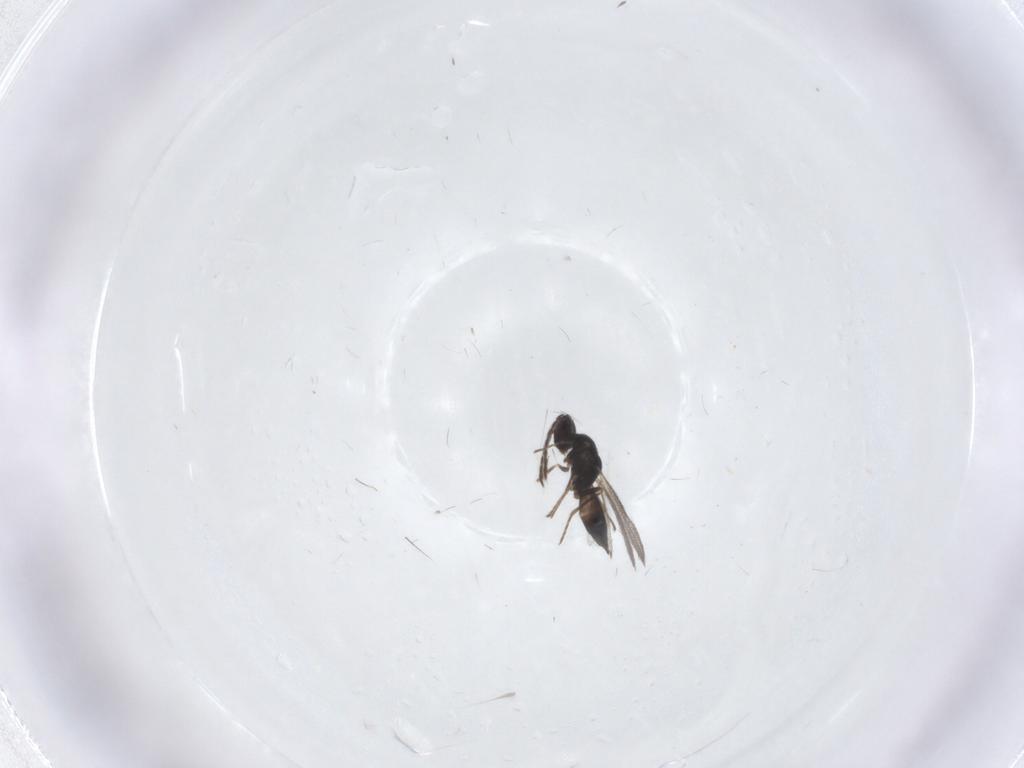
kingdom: Animalia
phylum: Arthropoda
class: Insecta
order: Hymenoptera
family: Eulophidae
